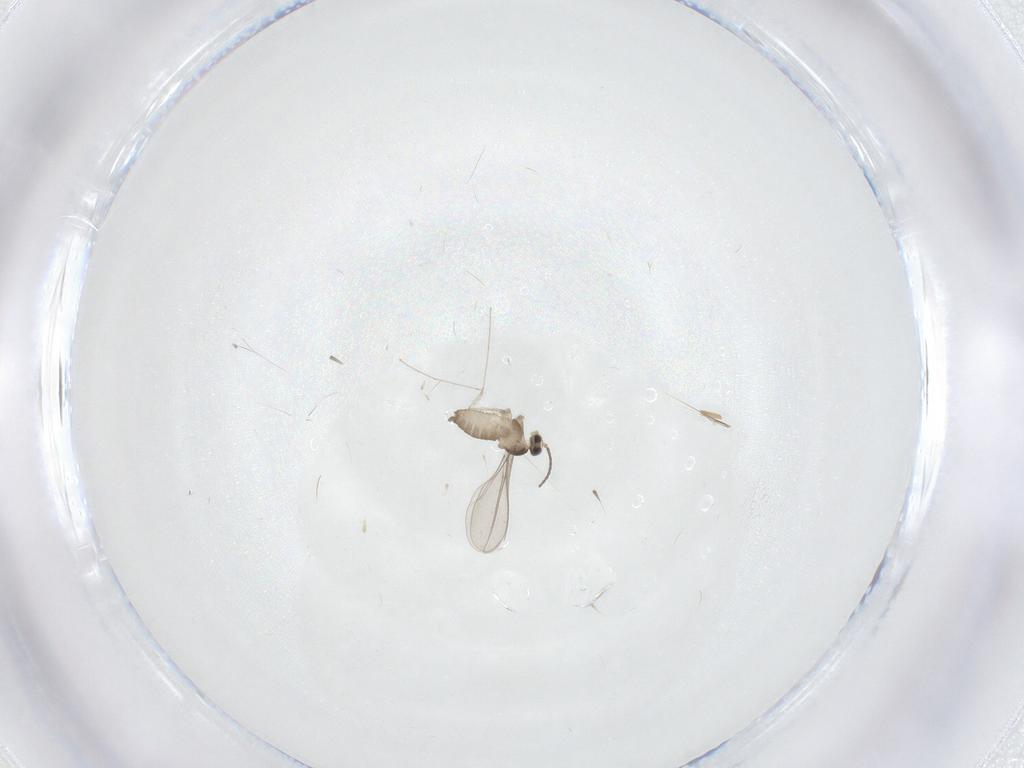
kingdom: Animalia
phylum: Arthropoda
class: Insecta
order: Diptera
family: Cecidomyiidae
